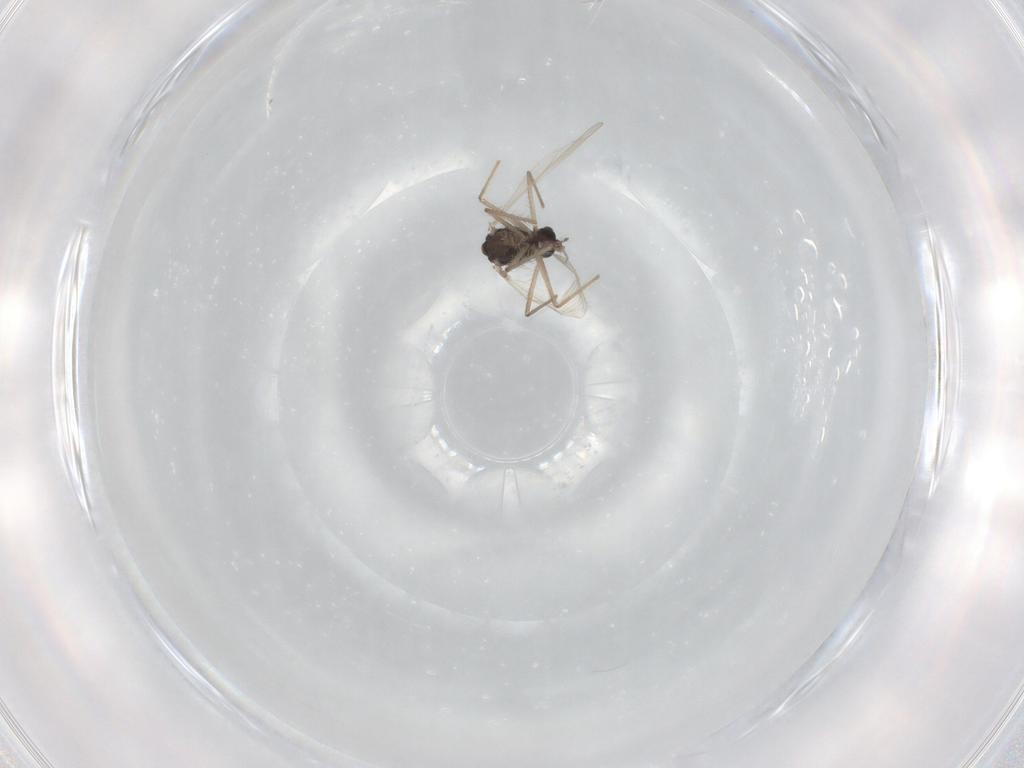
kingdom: Animalia
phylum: Arthropoda
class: Insecta
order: Diptera
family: Chironomidae
